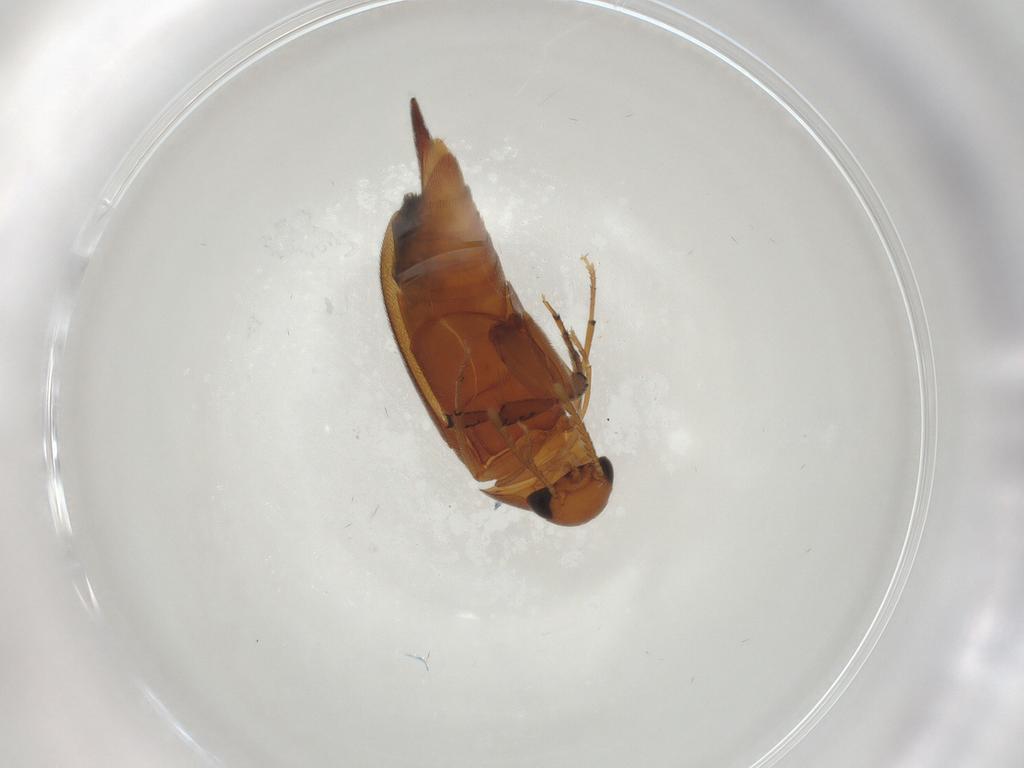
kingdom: Animalia
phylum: Arthropoda
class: Insecta
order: Coleoptera
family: Mordellidae
